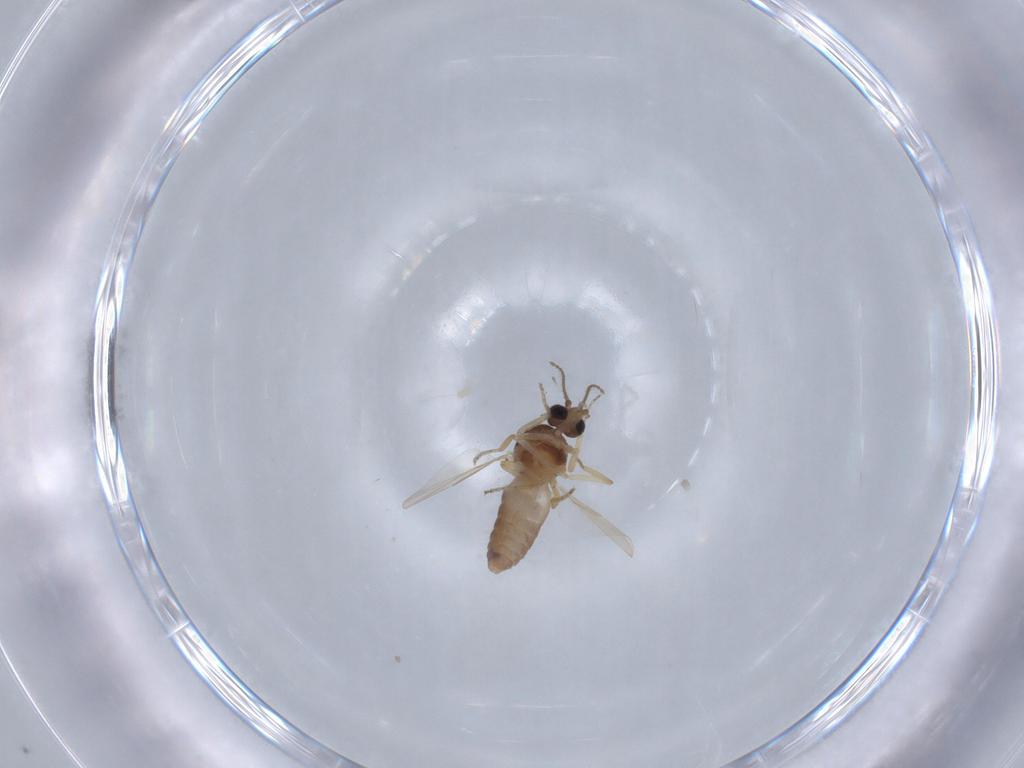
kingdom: Animalia
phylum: Arthropoda
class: Insecta
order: Diptera
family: Ceratopogonidae
